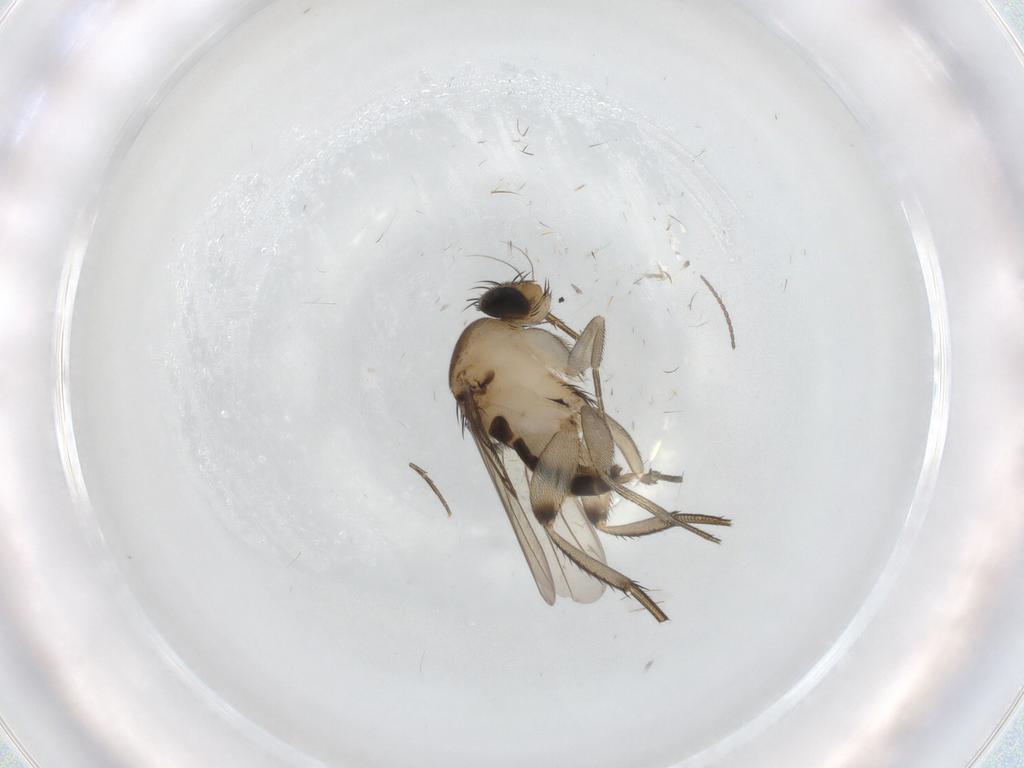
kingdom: Animalia
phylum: Arthropoda
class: Insecta
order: Diptera
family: Phoridae
